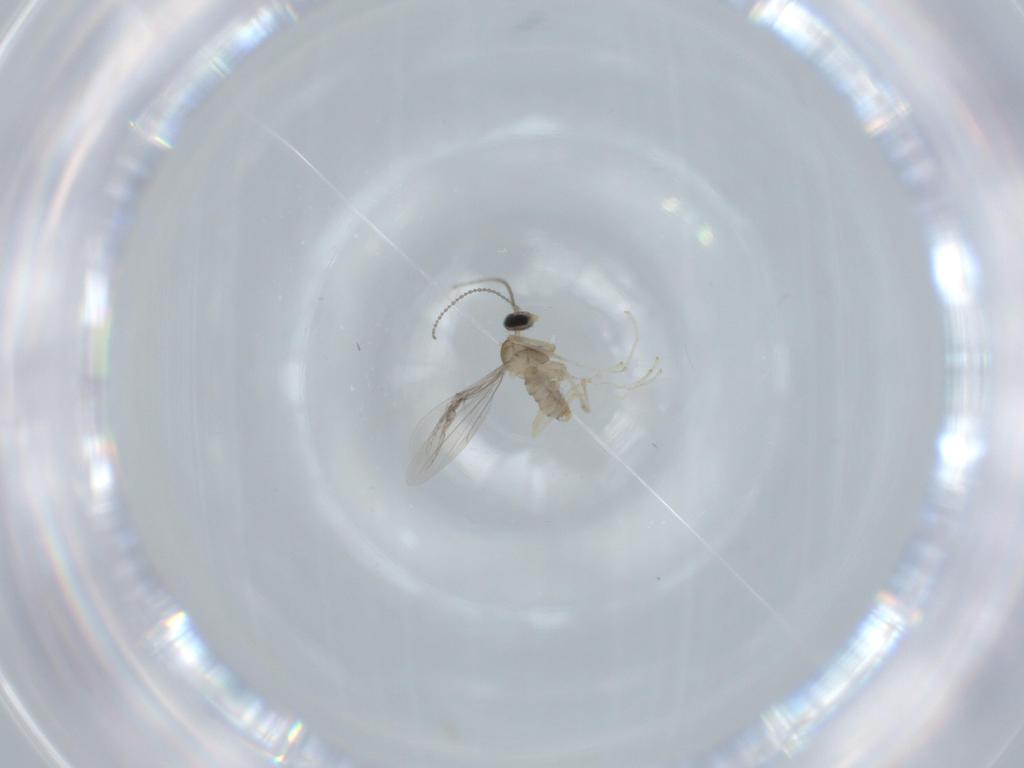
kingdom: Animalia
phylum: Arthropoda
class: Insecta
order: Diptera
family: Cecidomyiidae
